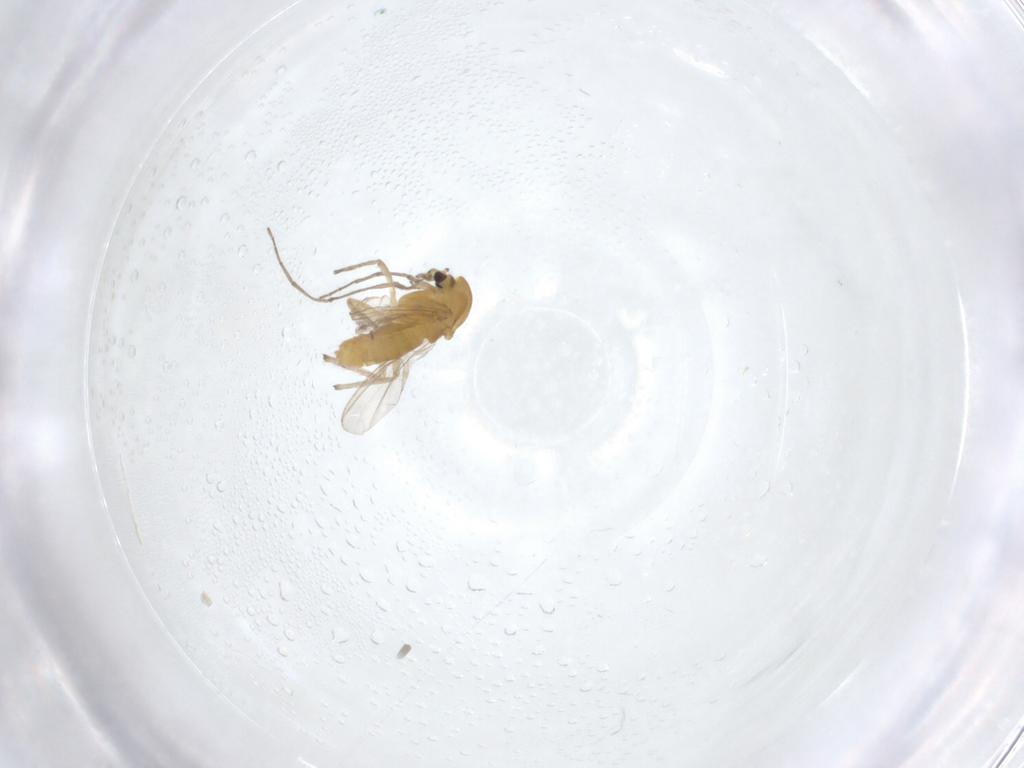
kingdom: Animalia
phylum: Arthropoda
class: Insecta
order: Diptera
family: Chironomidae
